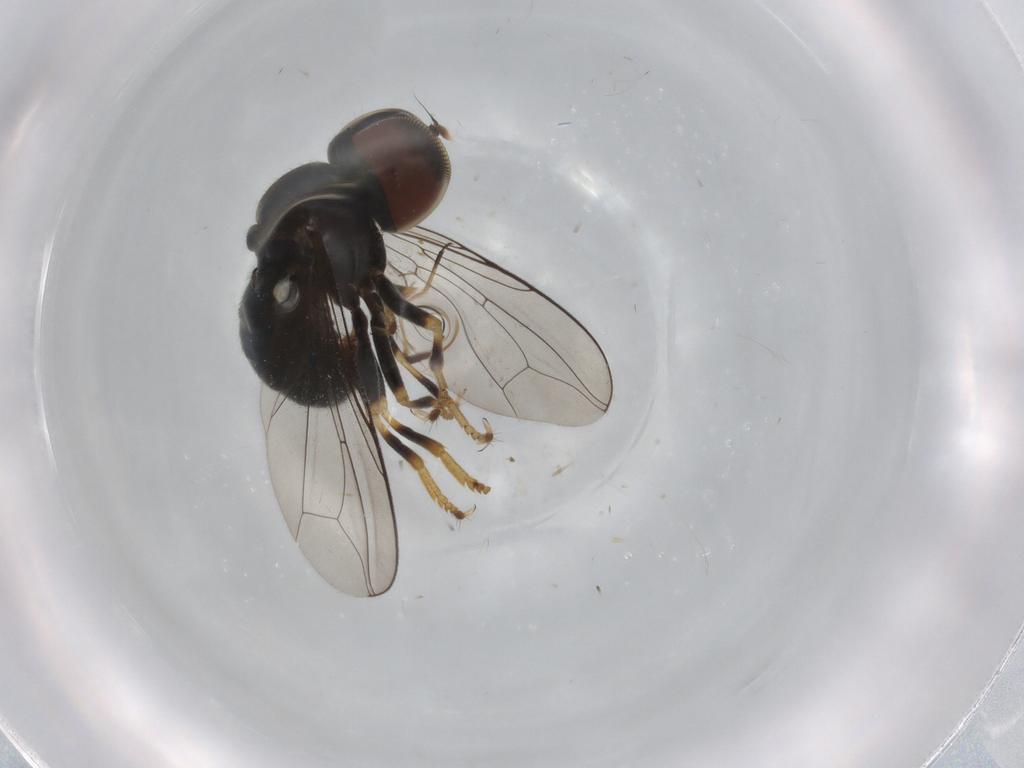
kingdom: Animalia
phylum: Arthropoda
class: Insecta
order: Diptera
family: Pipunculidae
